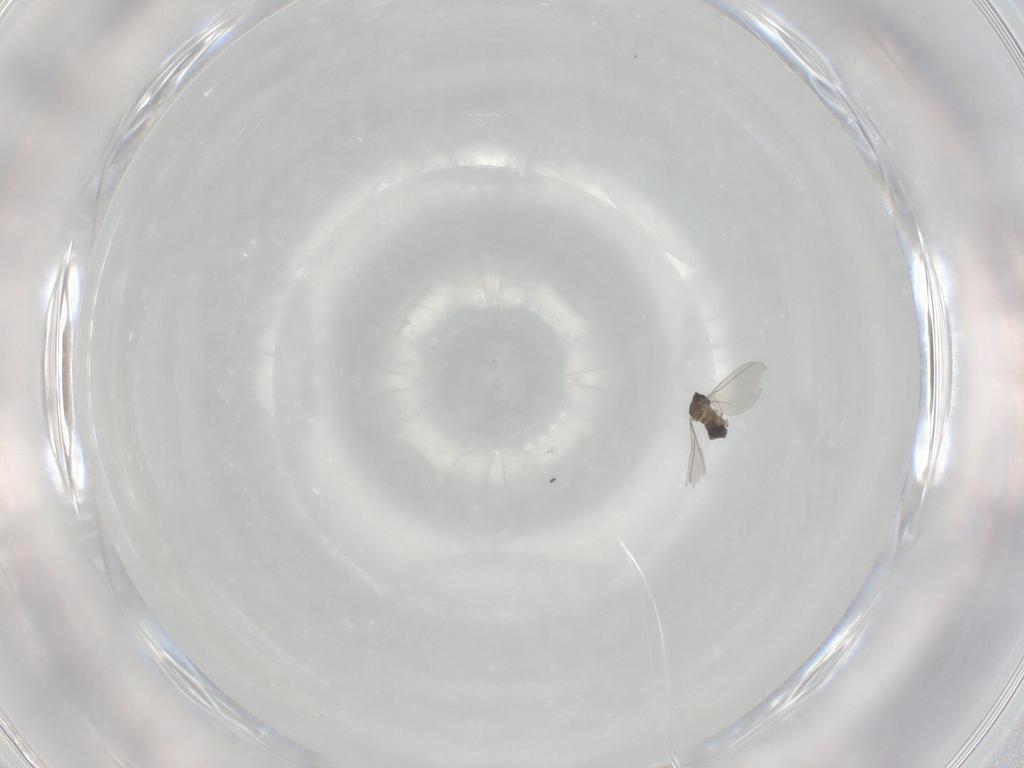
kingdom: Animalia
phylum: Arthropoda
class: Insecta
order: Diptera
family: Cecidomyiidae
